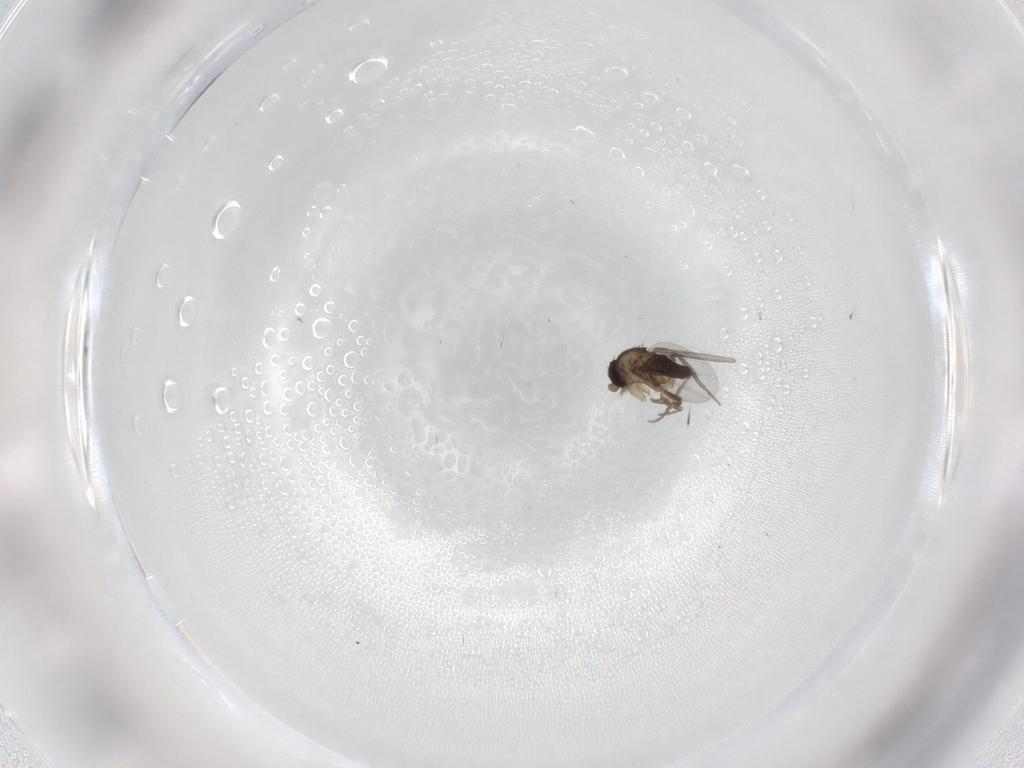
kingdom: Animalia
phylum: Arthropoda
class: Insecta
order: Diptera
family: Phoridae
